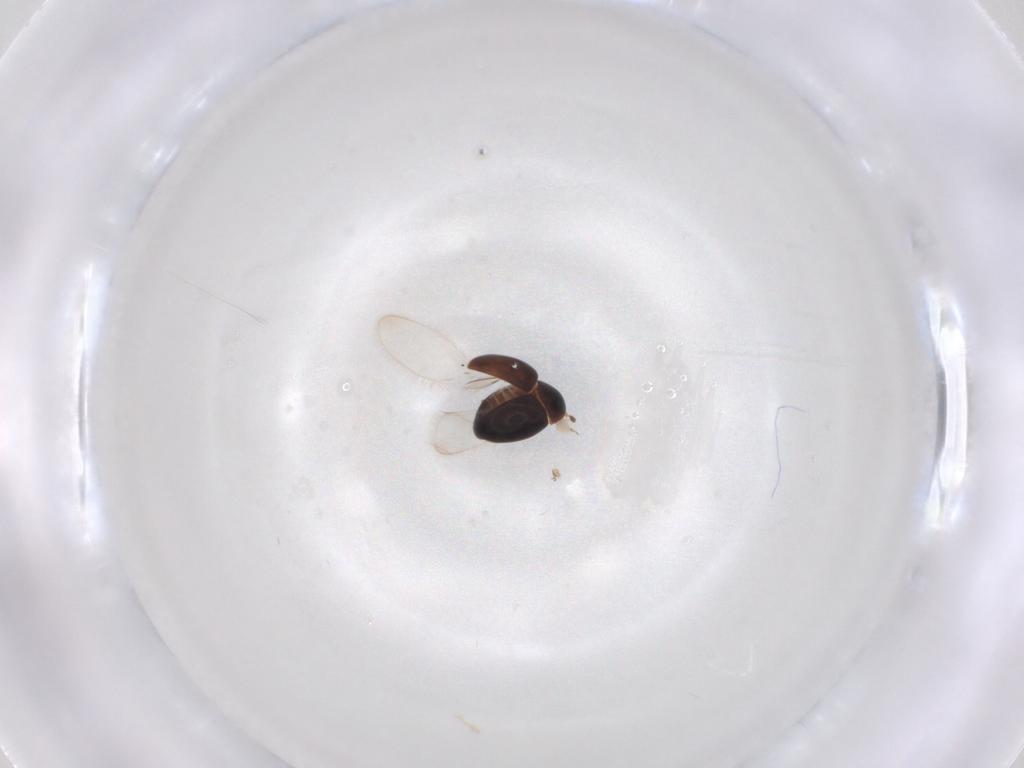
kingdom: Animalia
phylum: Arthropoda
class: Insecta
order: Coleoptera
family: Corylophidae
